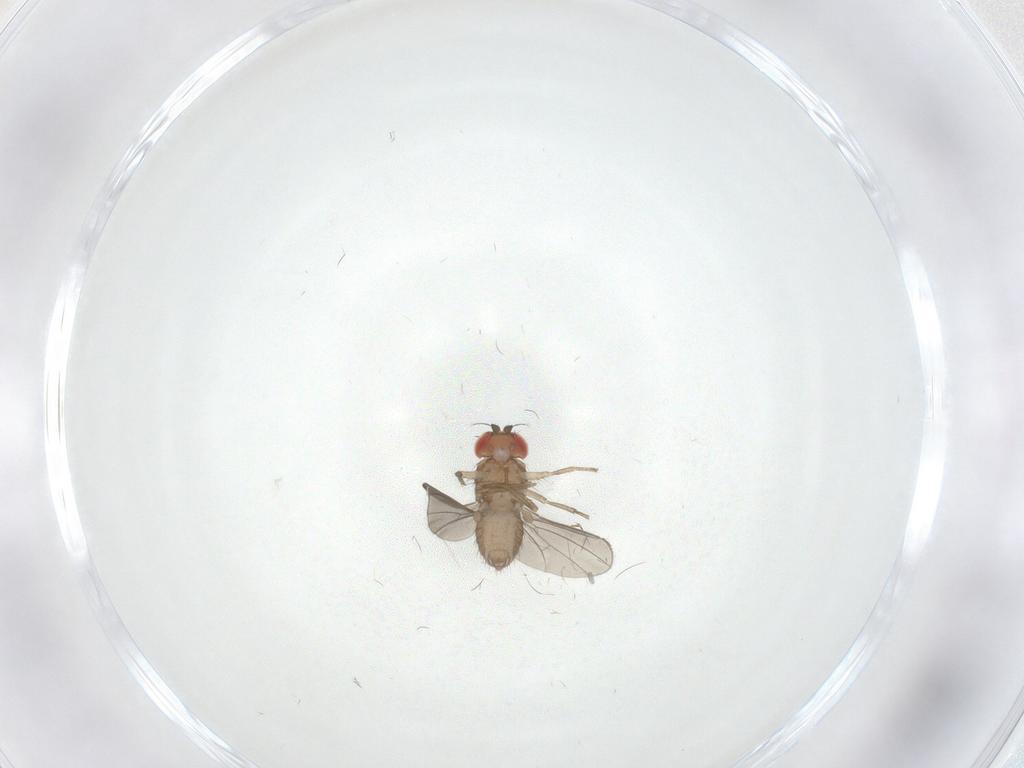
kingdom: Animalia
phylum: Arthropoda
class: Insecta
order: Diptera
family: Drosophilidae
